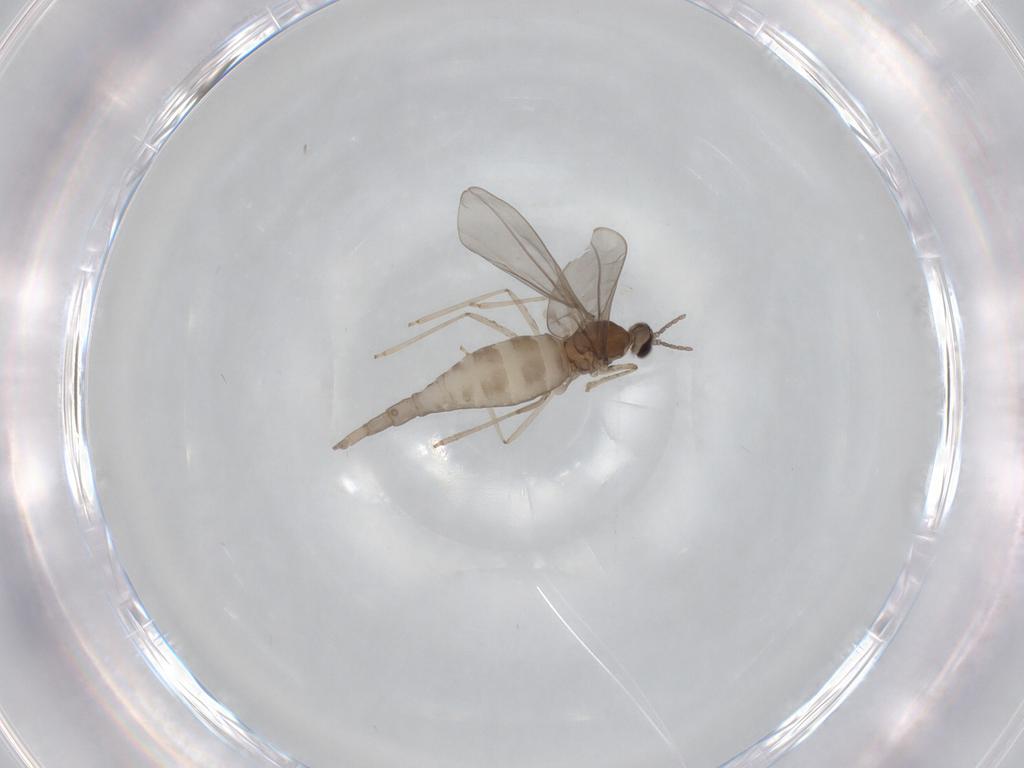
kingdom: Animalia
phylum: Arthropoda
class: Insecta
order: Diptera
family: Cecidomyiidae
